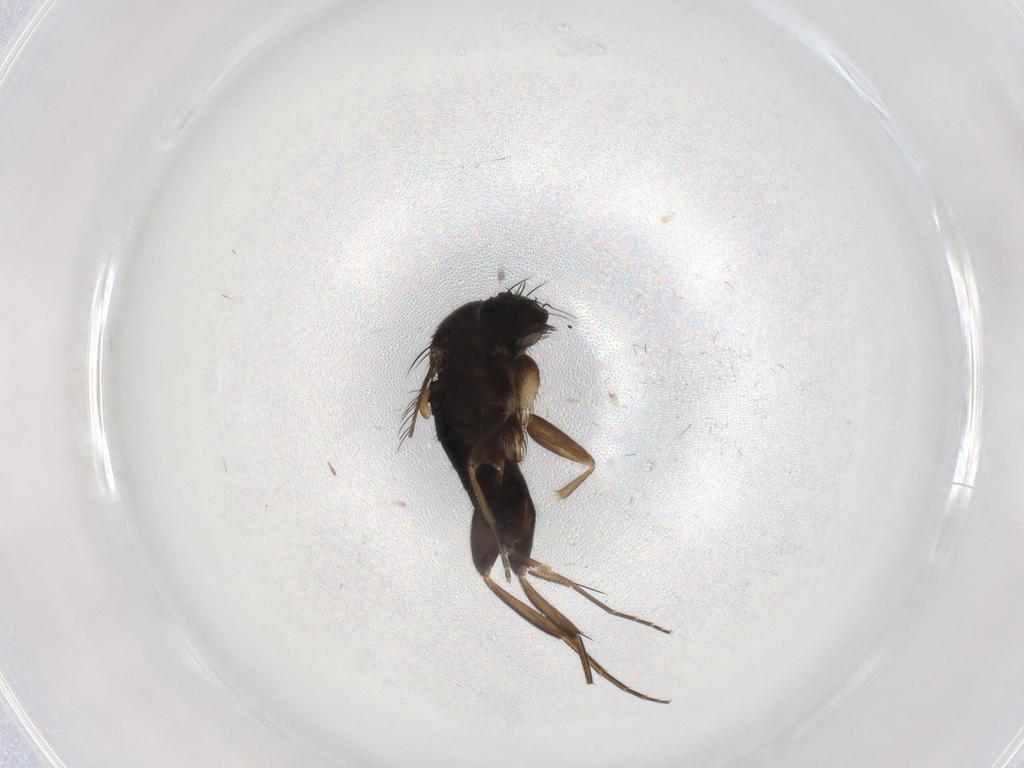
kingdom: Animalia
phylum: Arthropoda
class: Insecta
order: Diptera
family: Phoridae
